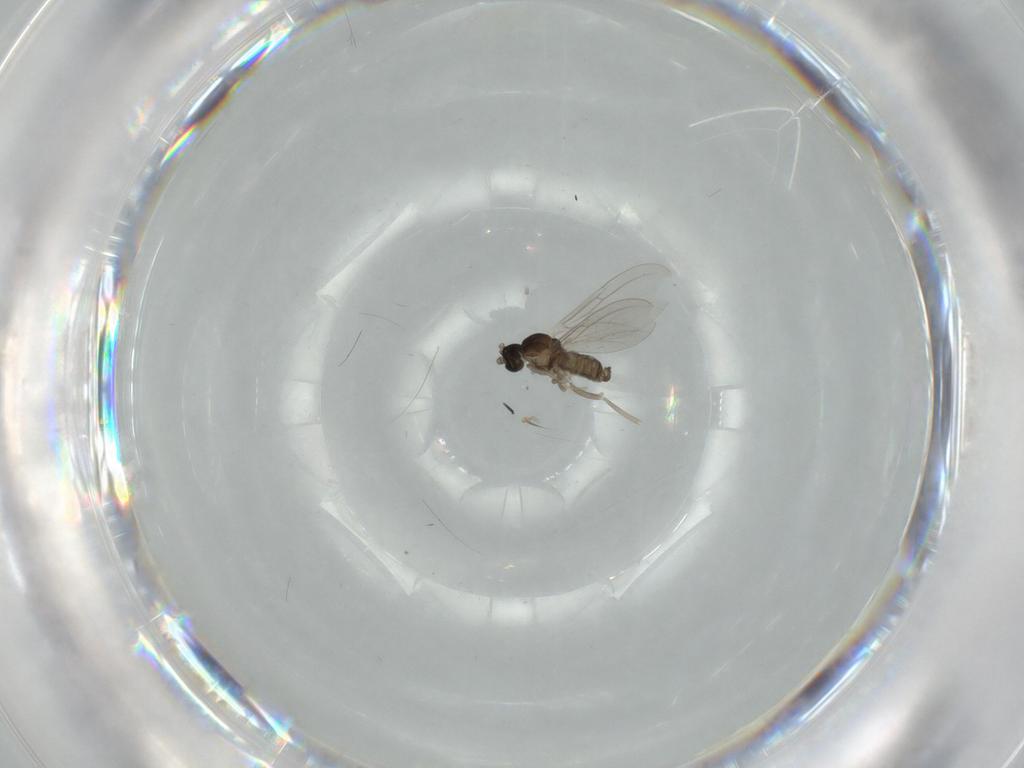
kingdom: Animalia
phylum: Arthropoda
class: Insecta
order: Diptera
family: Cecidomyiidae
